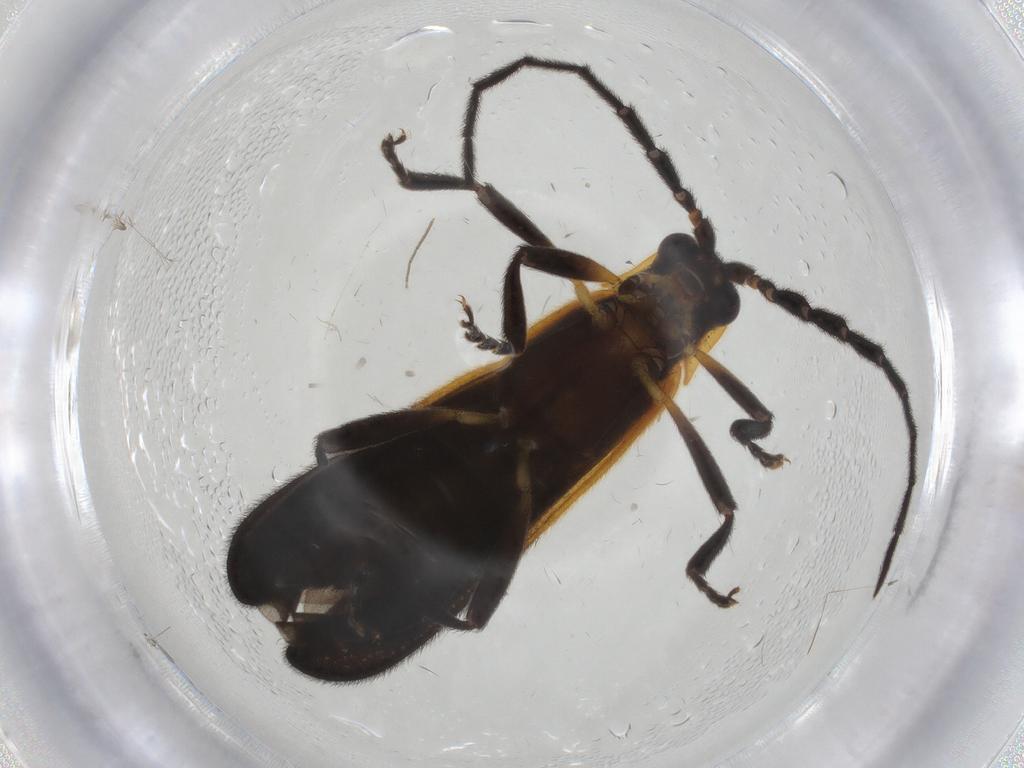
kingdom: Animalia
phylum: Arthropoda
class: Insecta
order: Coleoptera
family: Lycidae
